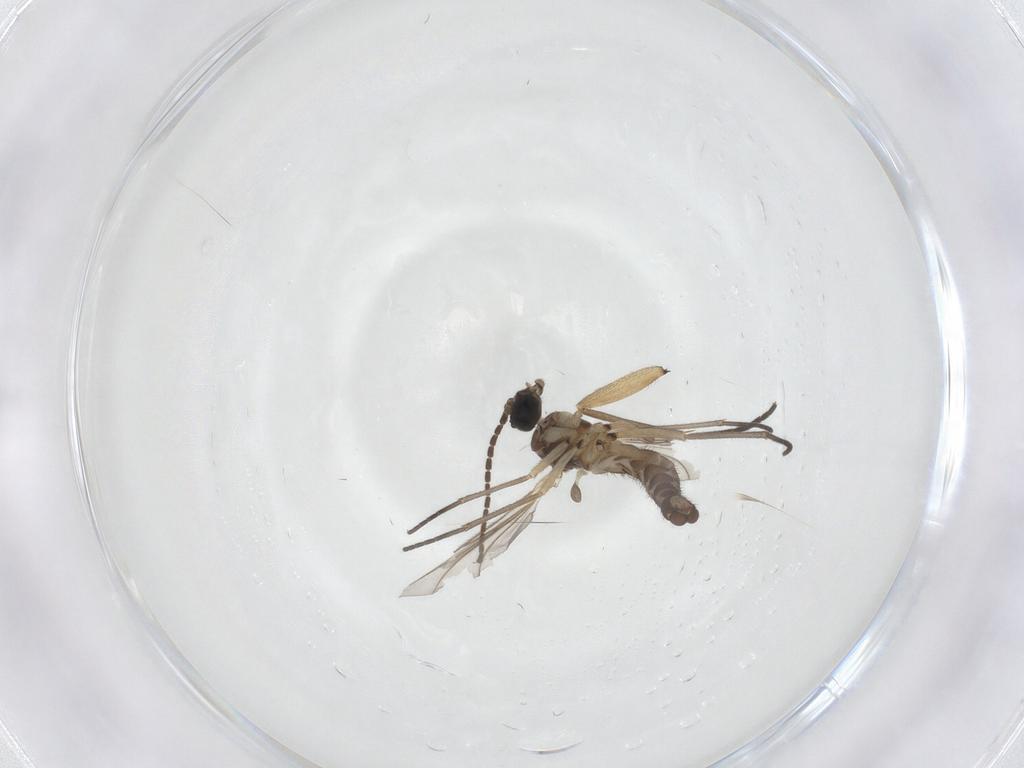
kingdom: Animalia
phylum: Arthropoda
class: Insecta
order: Diptera
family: Sciaridae
